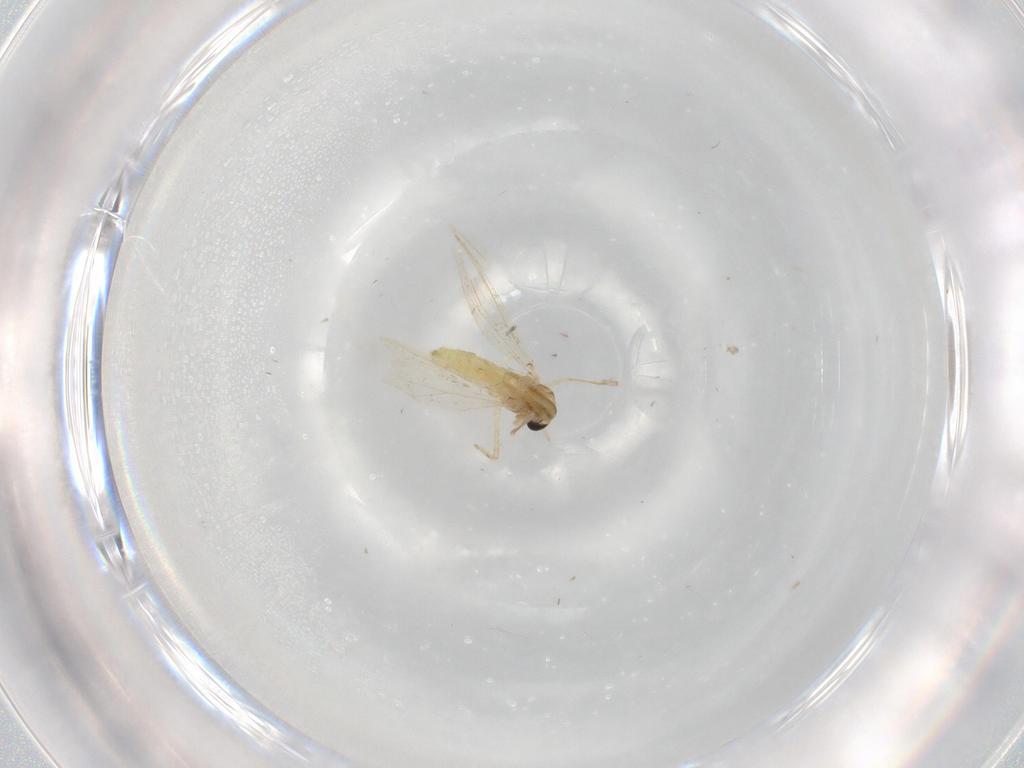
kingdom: Animalia
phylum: Arthropoda
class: Insecta
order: Diptera
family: Chironomidae
